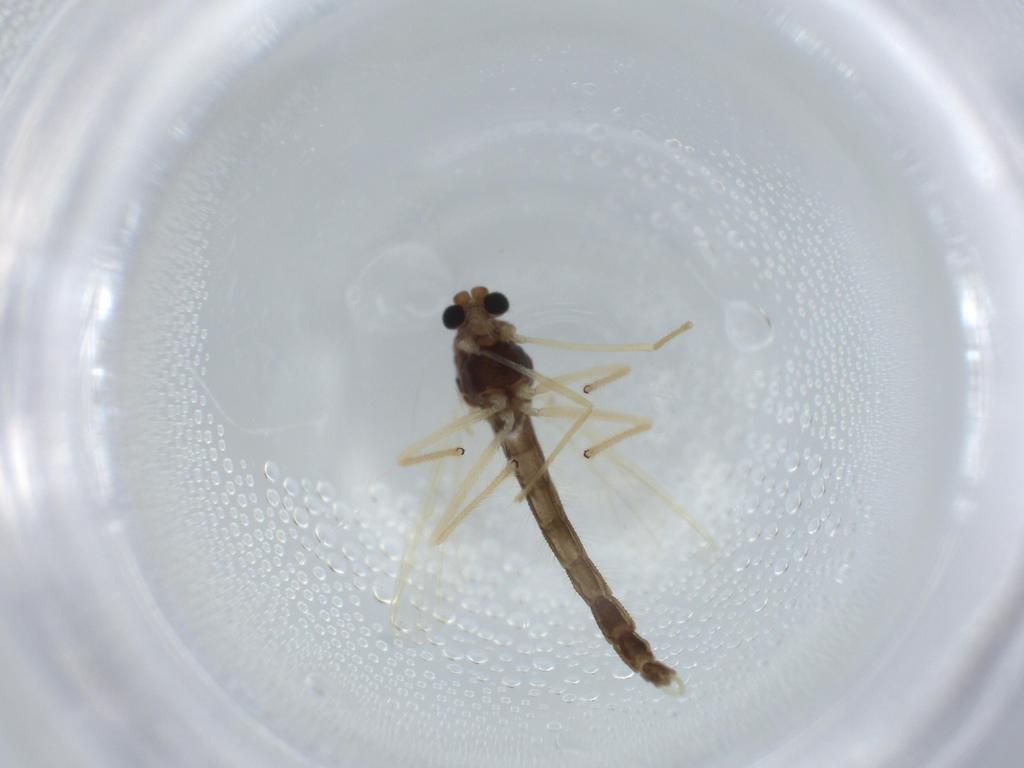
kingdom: Animalia
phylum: Arthropoda
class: Insecta
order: Diptera
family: Chironomidae
